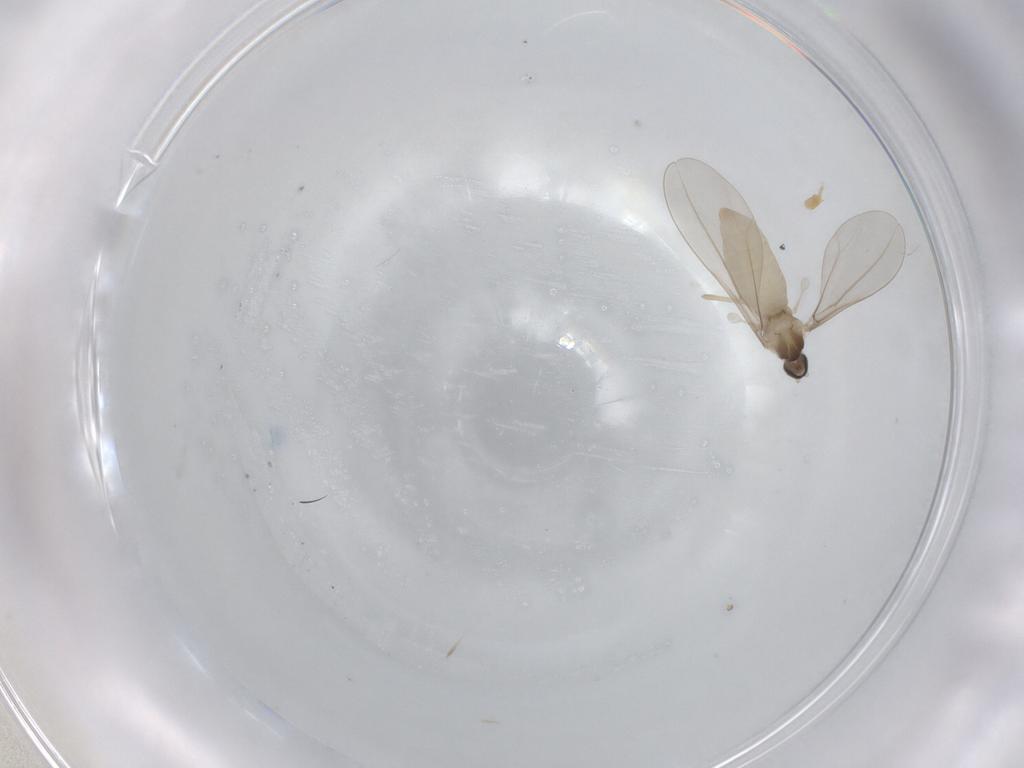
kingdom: Animalia
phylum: Arthropoda
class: Insecta
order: Diptera
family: Cecidomyiidae
